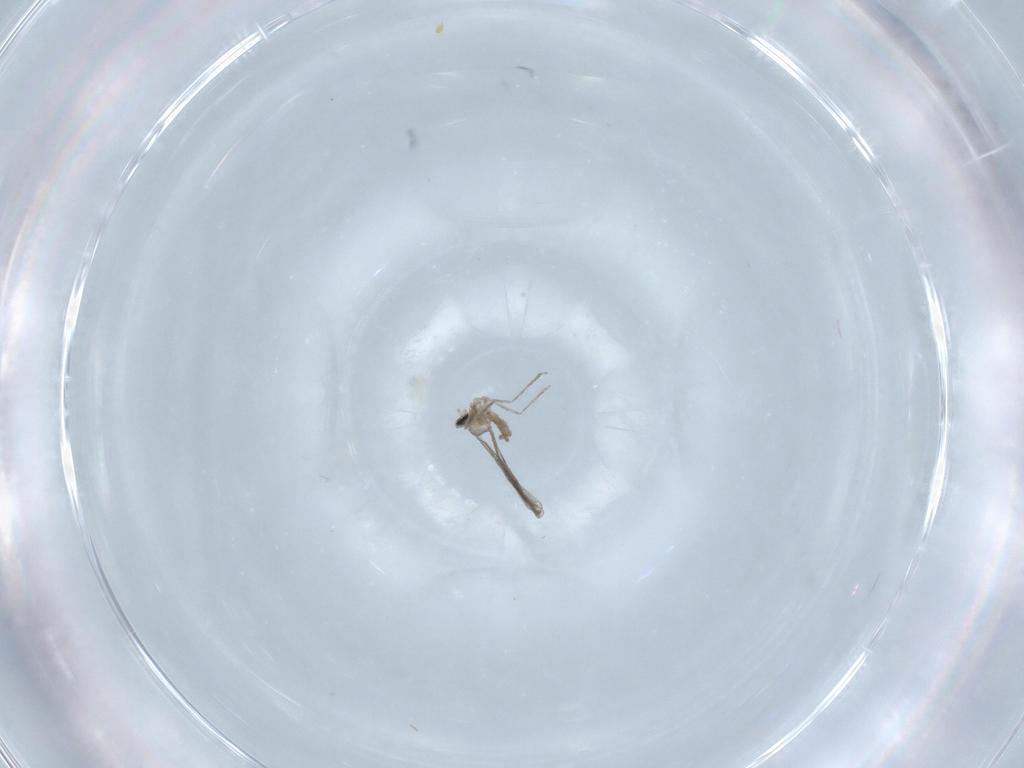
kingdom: Animalia
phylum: Arthropoda
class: Insecta
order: Diptera
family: Cecidomyiidae
